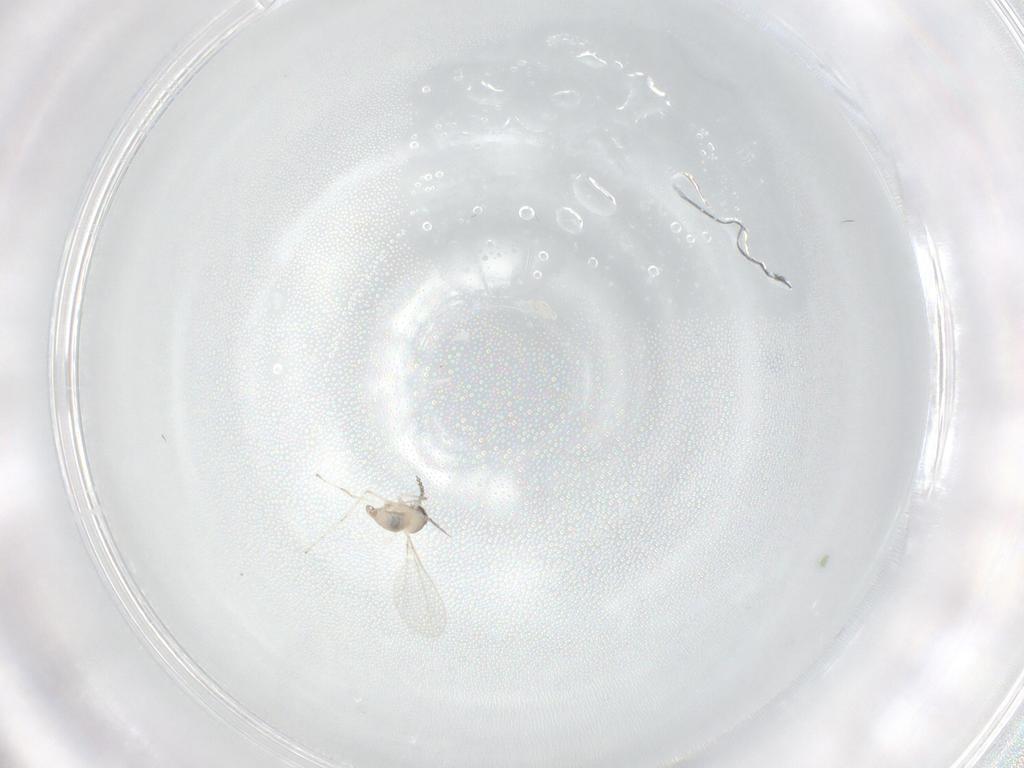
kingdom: Animalia
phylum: Arthropoda
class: Insecta
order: Diptera
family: Cecidomyiidae
